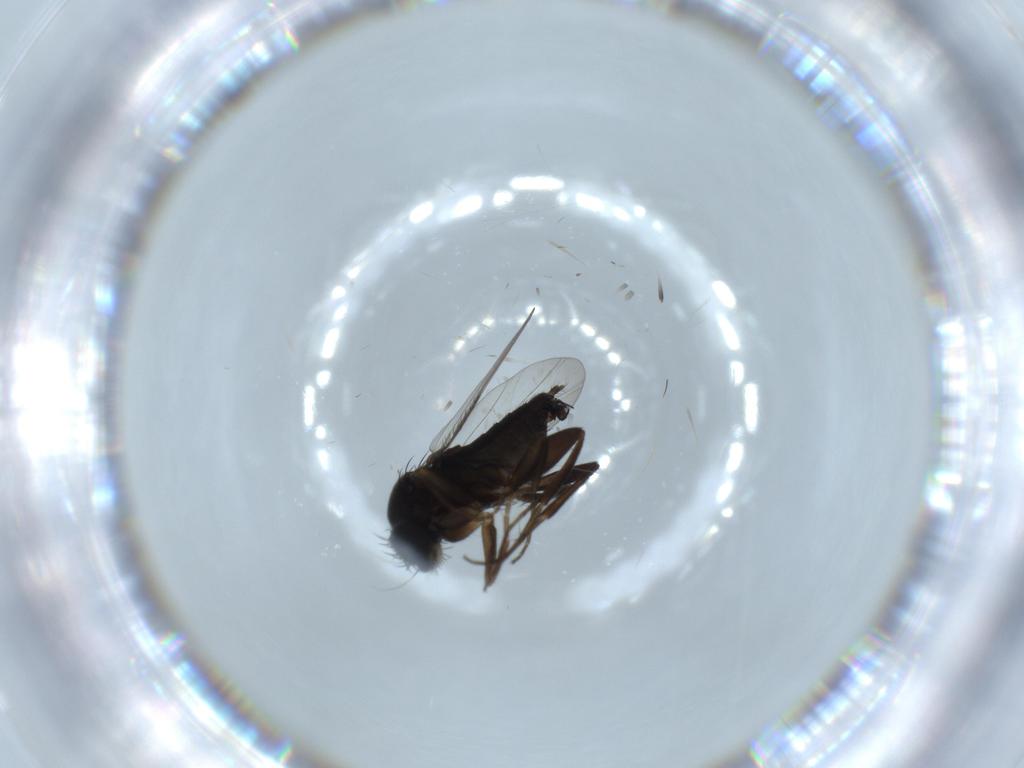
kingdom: Animalia
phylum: Arthropoda
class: Insecta
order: Diptera
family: Phoridae
